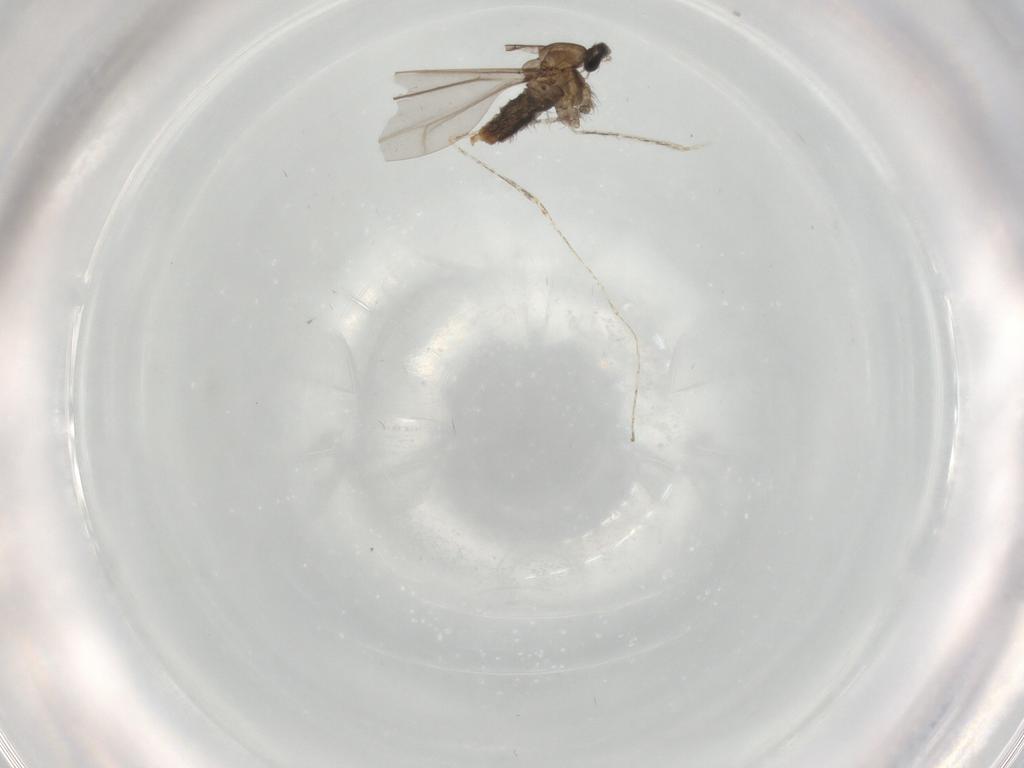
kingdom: Animalia
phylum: Arthropoda
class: Insecta
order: Diptera
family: Cecidomyiidae
